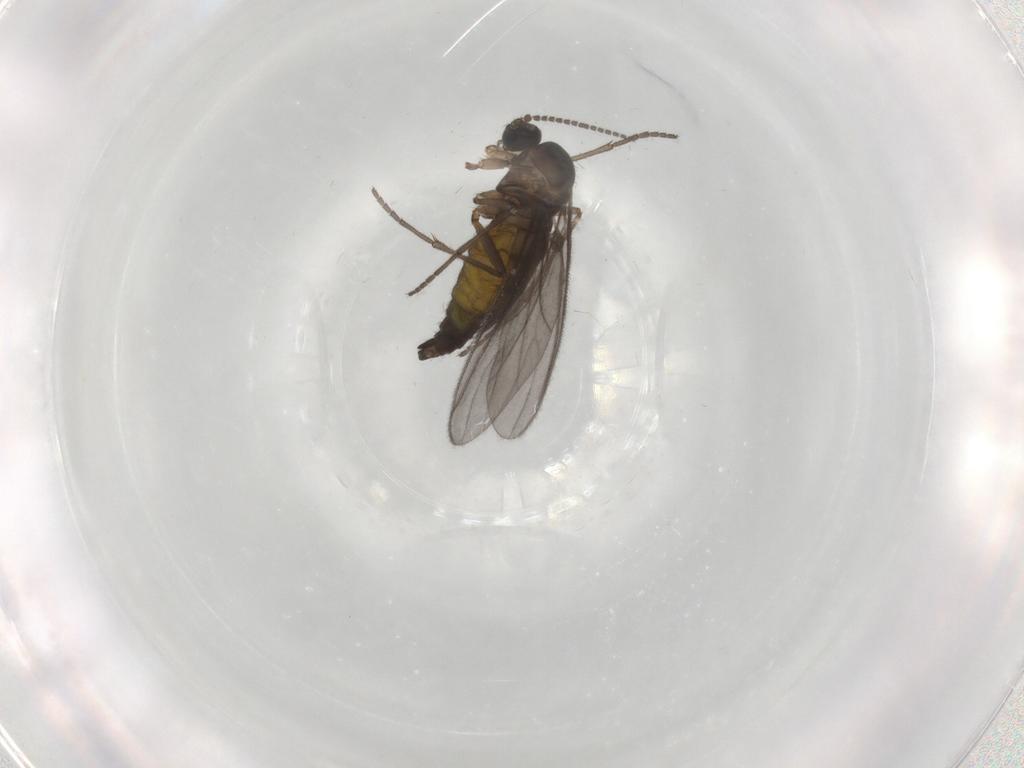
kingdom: Animalia
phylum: Arthropoda
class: Insecta
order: Diptera
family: Sciaridae
